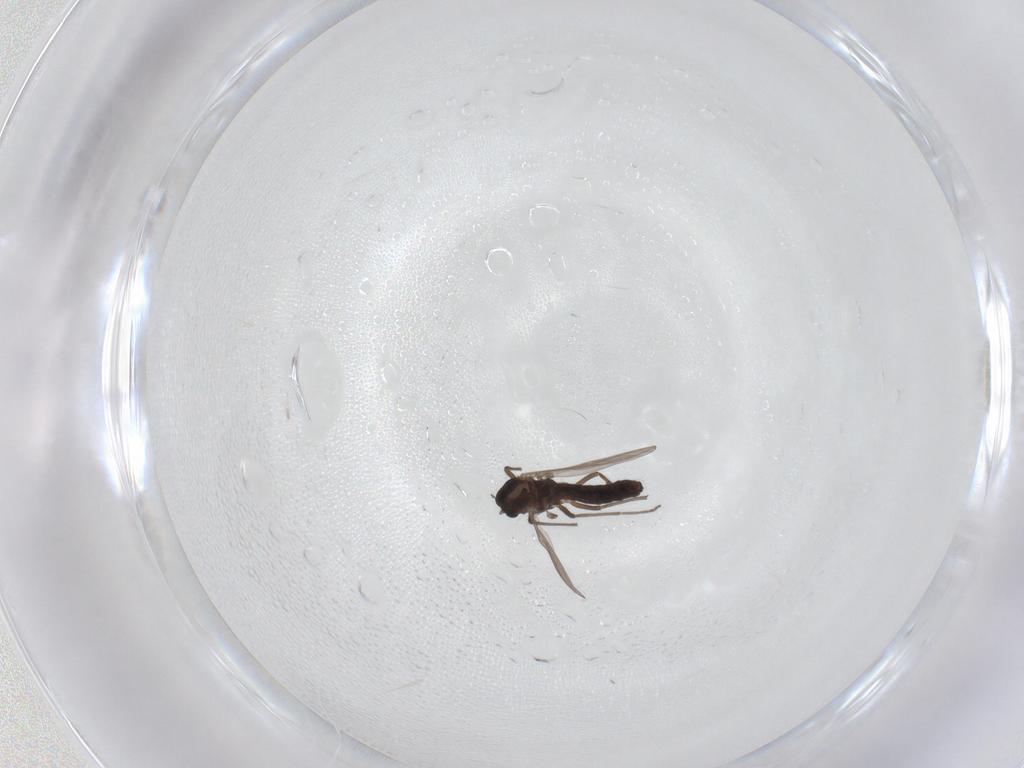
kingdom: Animalia
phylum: Arthropoda
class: Insecta
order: Diptera
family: Chironomidae
